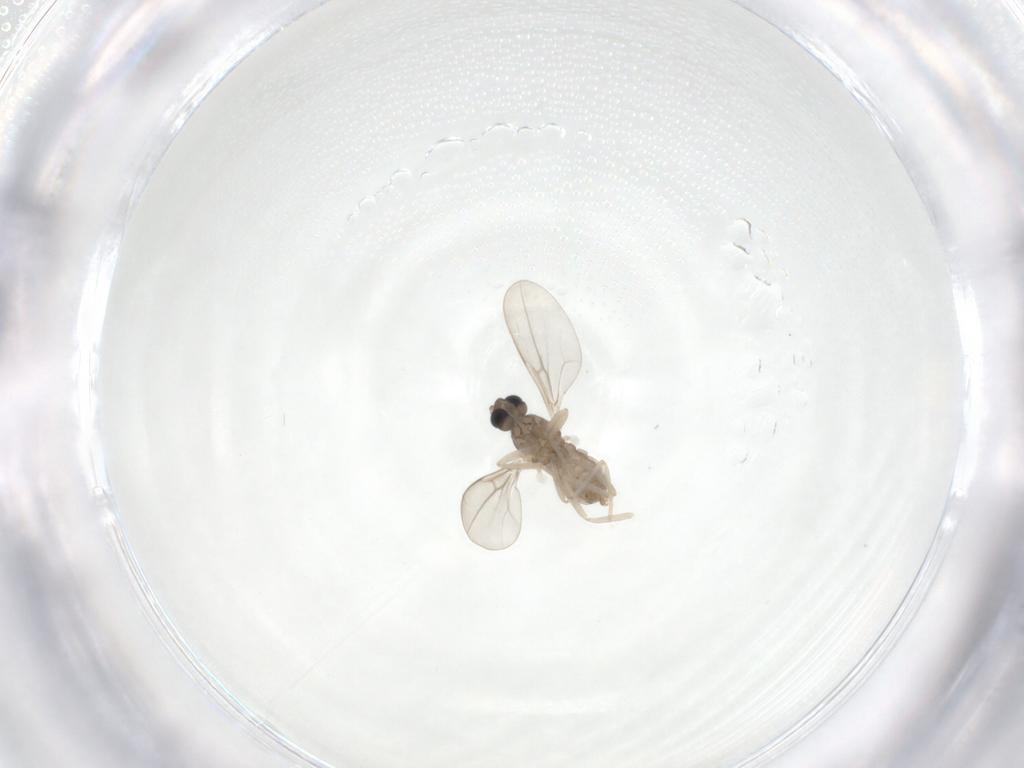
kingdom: Animalia
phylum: Arthropoda
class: Insecta
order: Diptera
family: Cecidomyiidae
